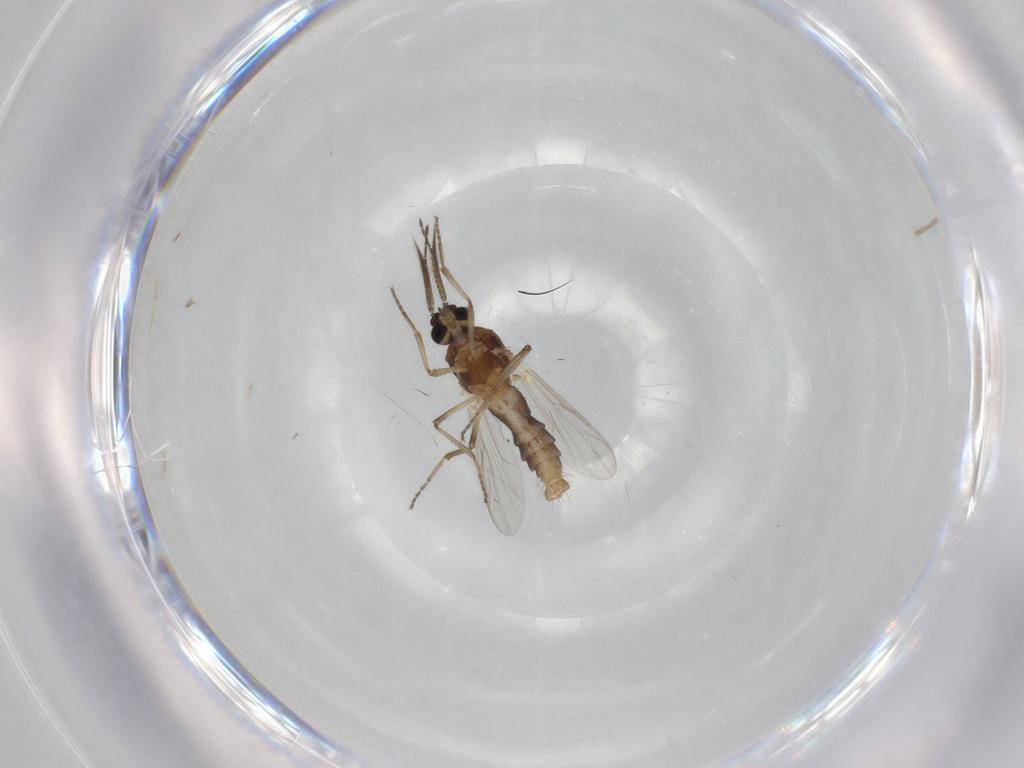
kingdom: Animalia
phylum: Arthropoda
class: Insecta
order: Diptera
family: Ceratopogonidae
